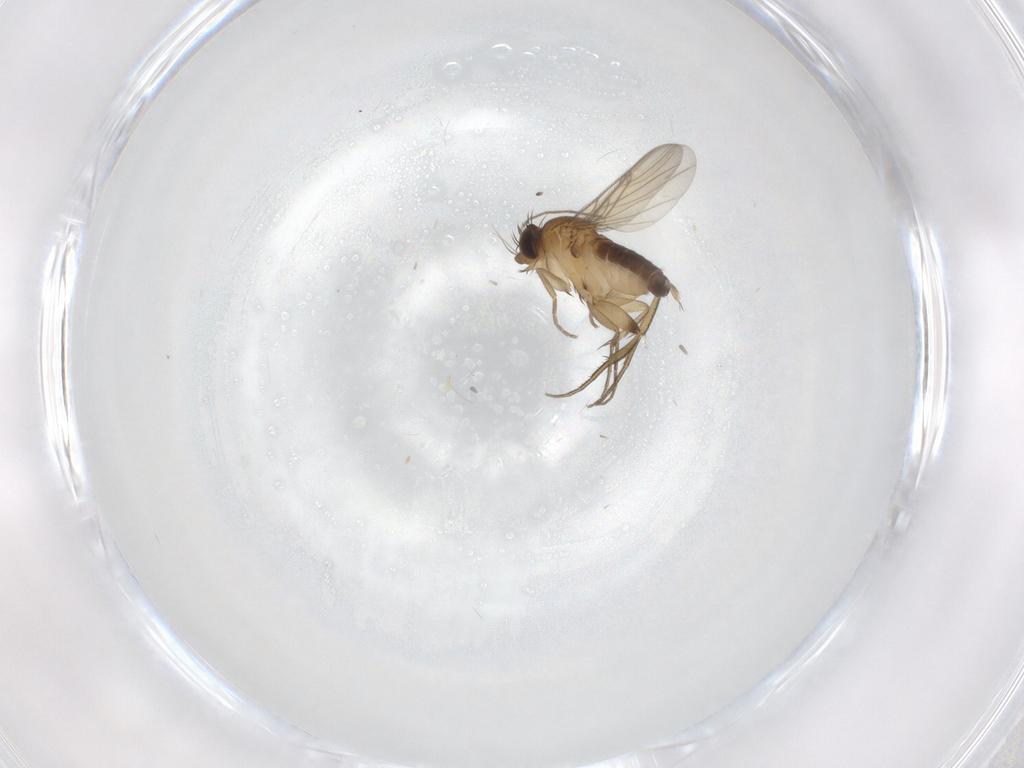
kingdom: Animalia
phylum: Arthropoda
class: Insecta
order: Diptera
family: Phoridae
